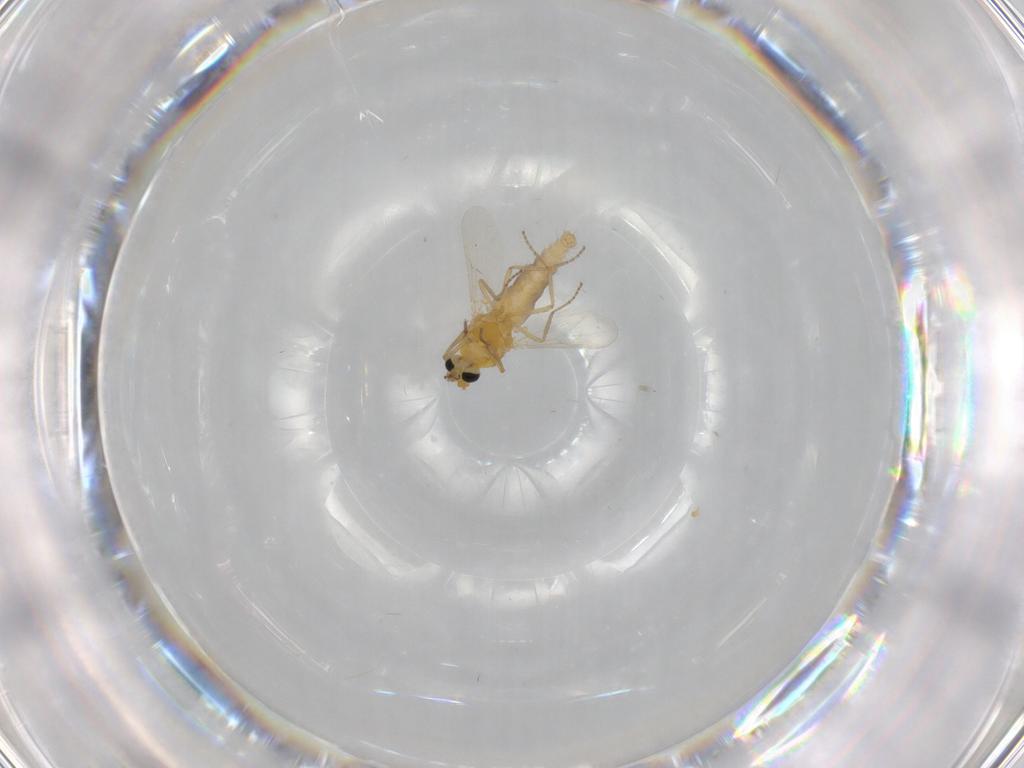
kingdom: Animalia
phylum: Arthropoda
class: Insecta
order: Diptera
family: Ceratopogonidae
